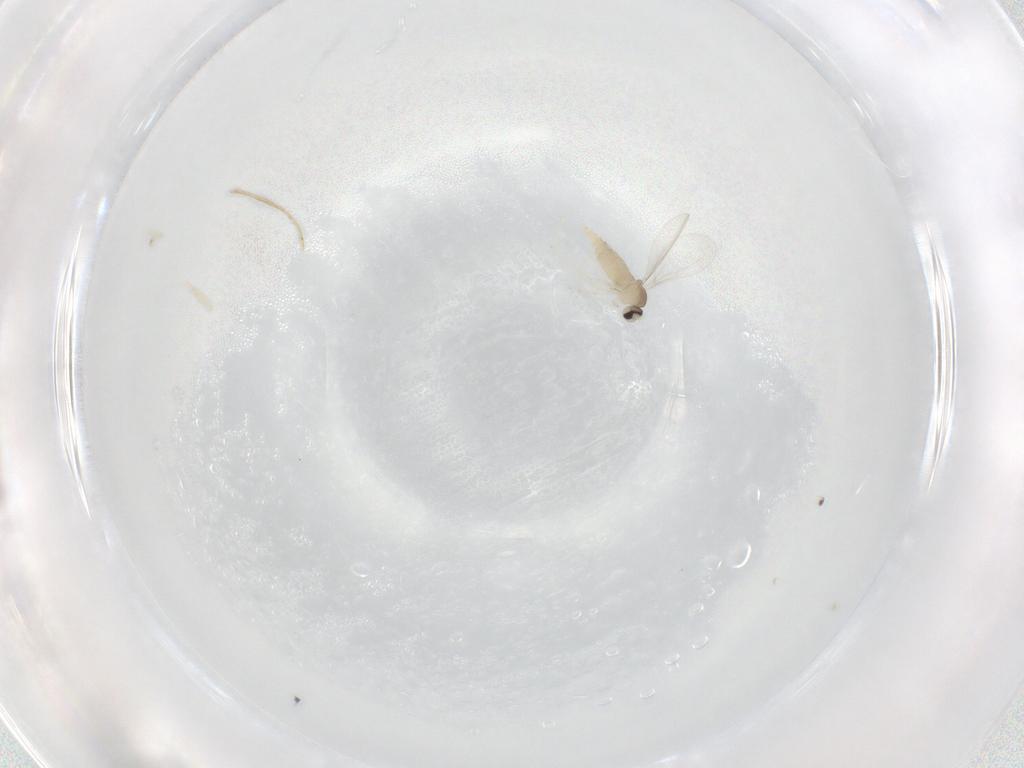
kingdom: Animalia
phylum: Arthropoda
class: Insecta
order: Diptera
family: Cecidomyiidae
